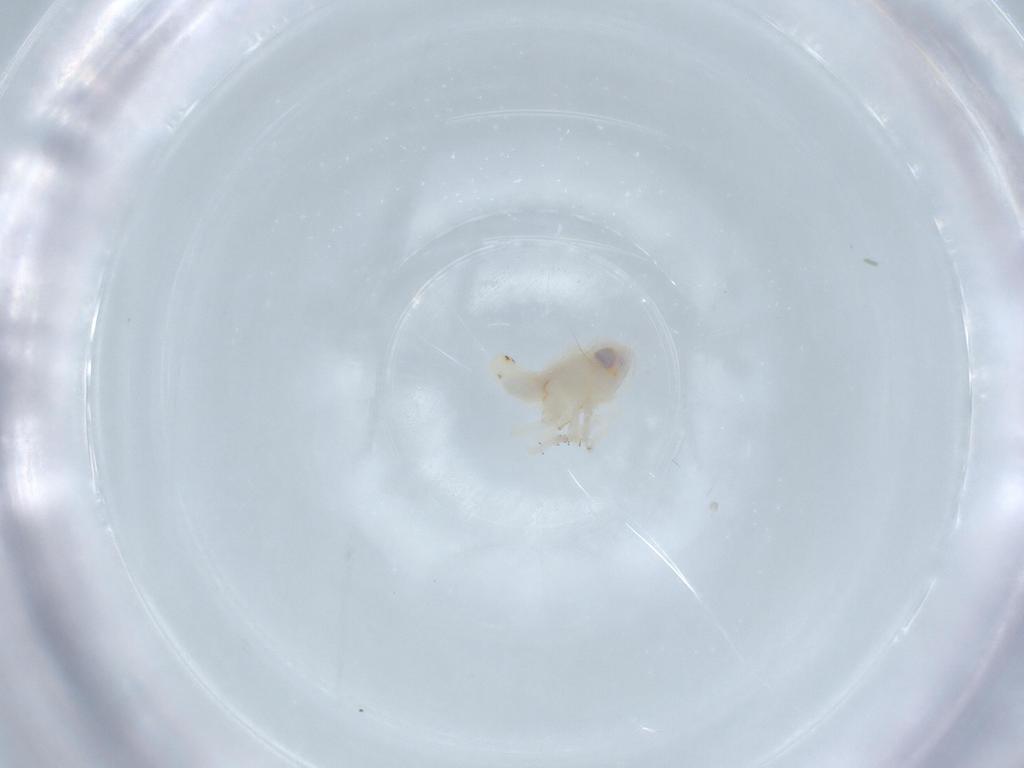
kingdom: Animalia
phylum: Arthropoda
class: Insecta
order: Hemiptera
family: Nogodinidae
